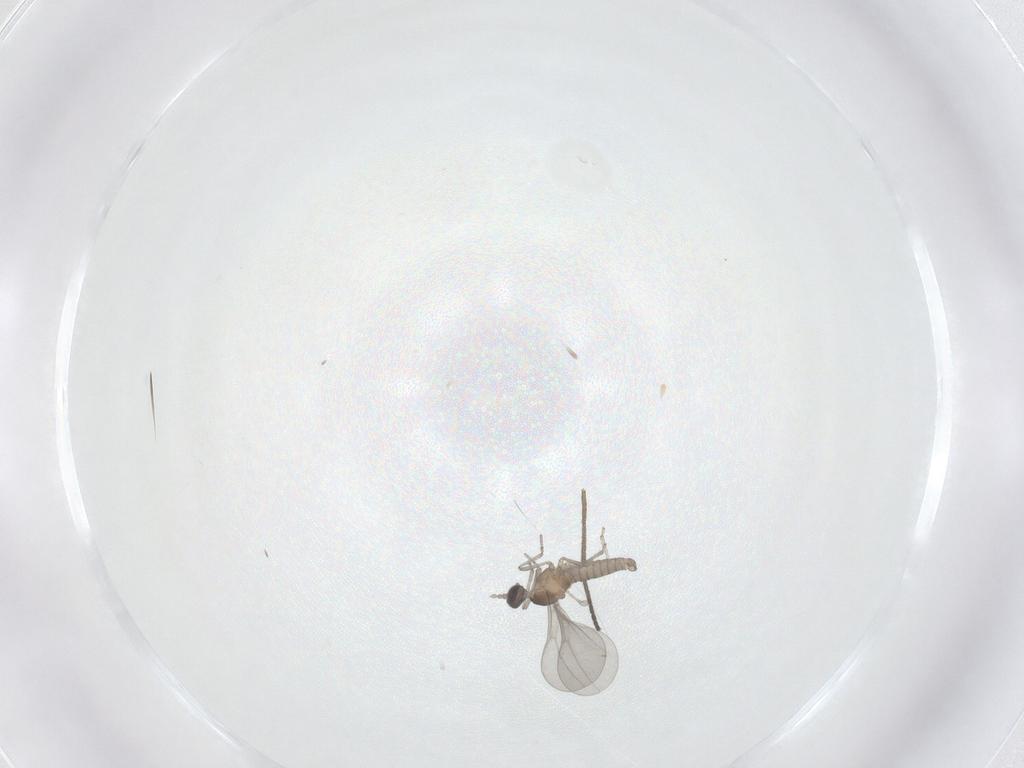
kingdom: Animalia
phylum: Arthropoda
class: Insecta
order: Diptera
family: Cecidomyiidae
